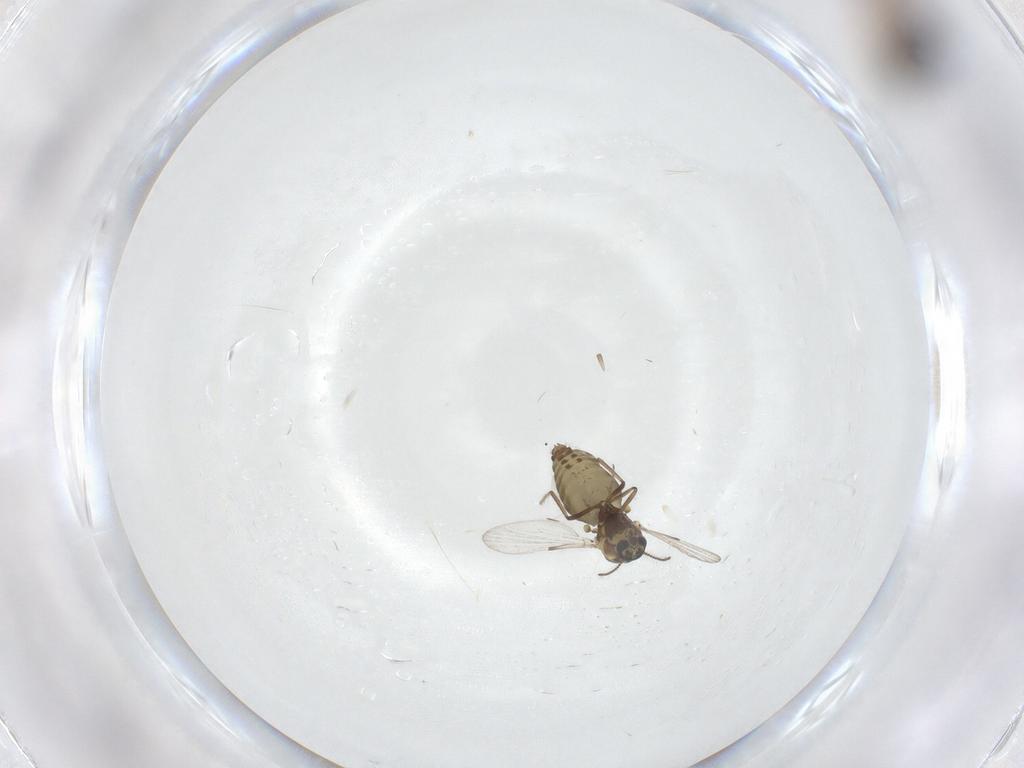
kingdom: Animalia
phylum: Arthropoda
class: Insecta
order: Diptera
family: Ceratopogonidae
